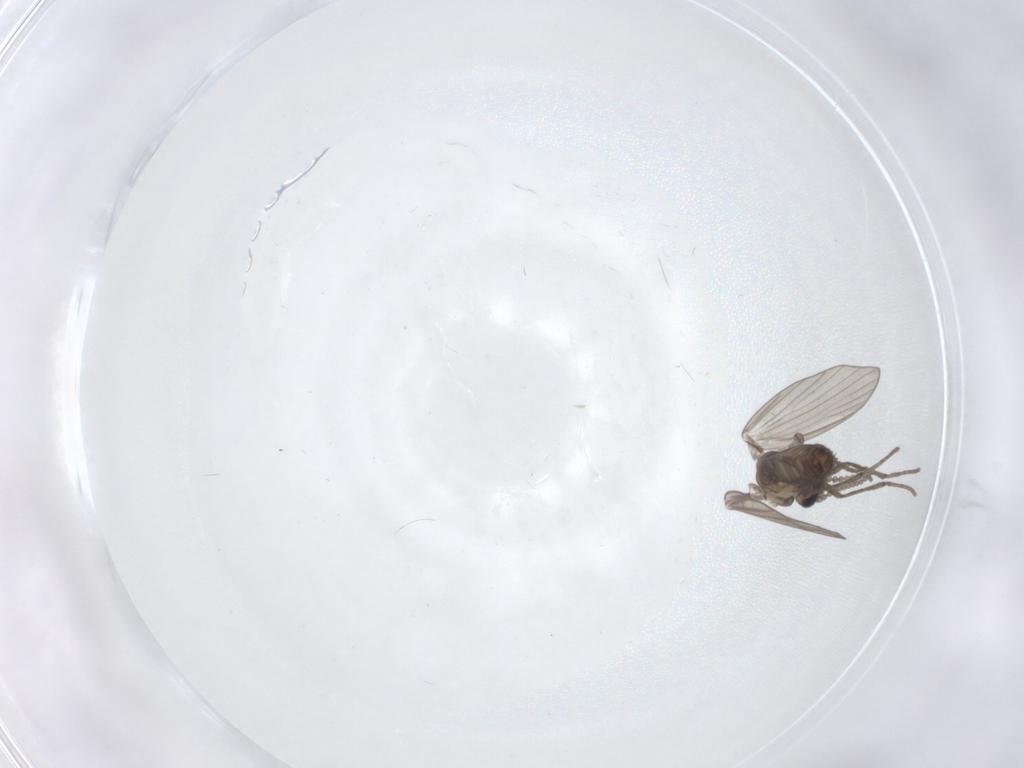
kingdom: Animalia
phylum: Arthropoda
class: Insecta
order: Diptera
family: Psychodidae
